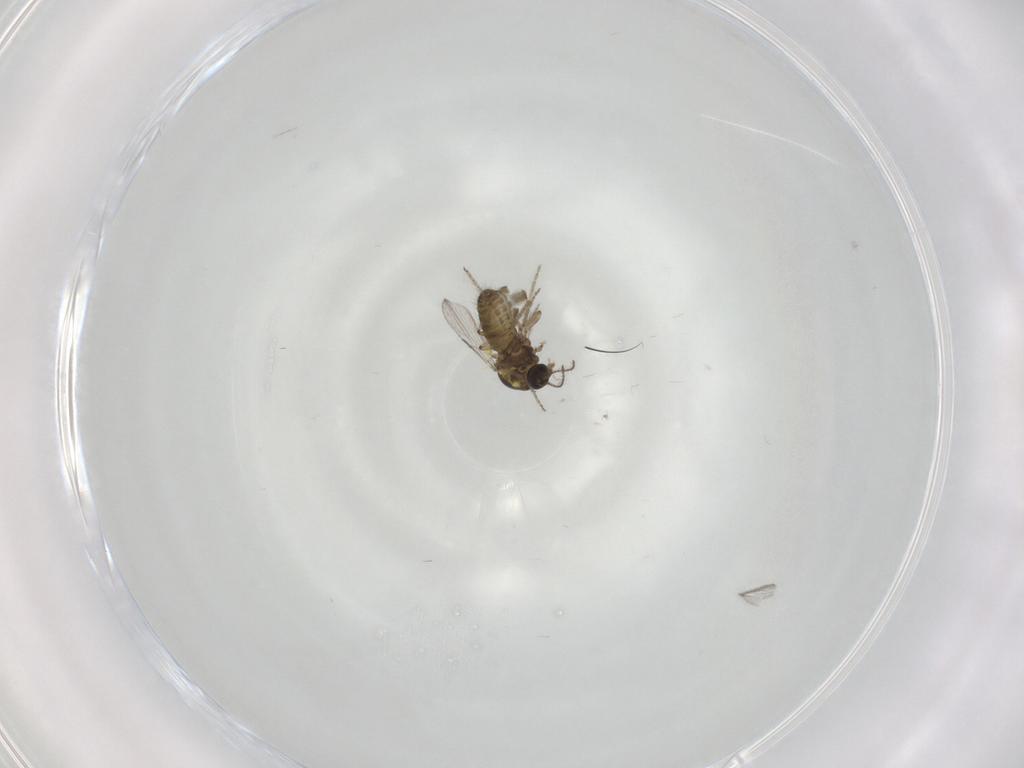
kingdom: Animalia
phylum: Arthropoda
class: Insecta
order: Diptera
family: Ceratopogonidae
